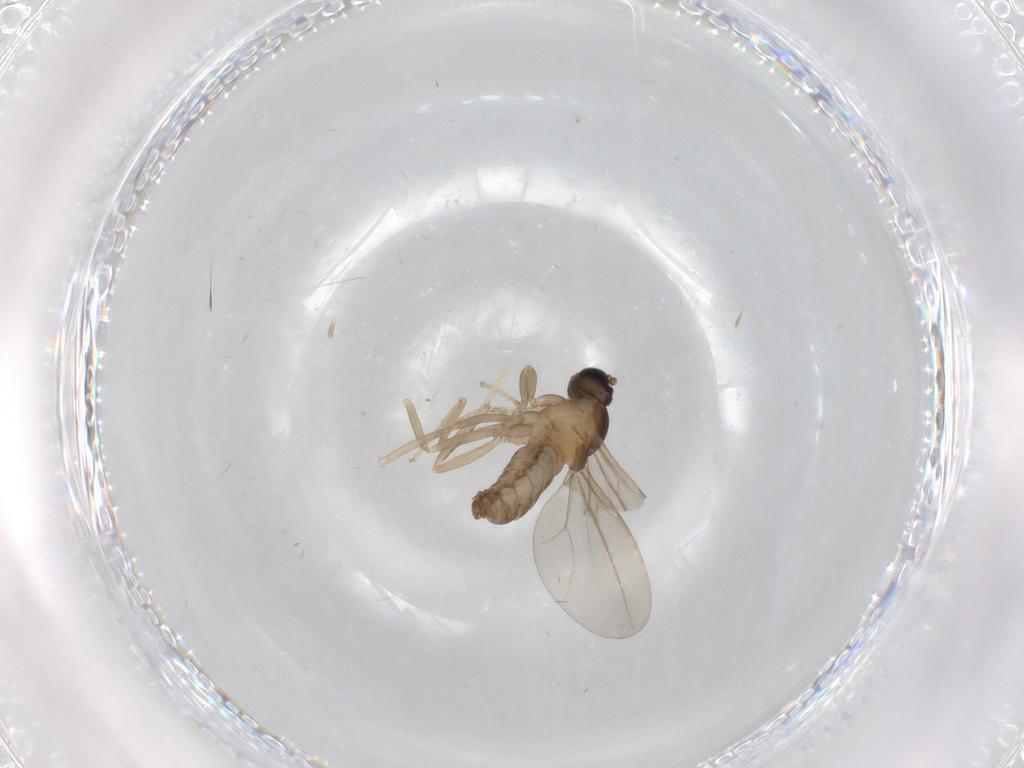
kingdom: Animalia
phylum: Arthropoda
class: Insecta
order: Diptera
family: Cecidomyiidae
